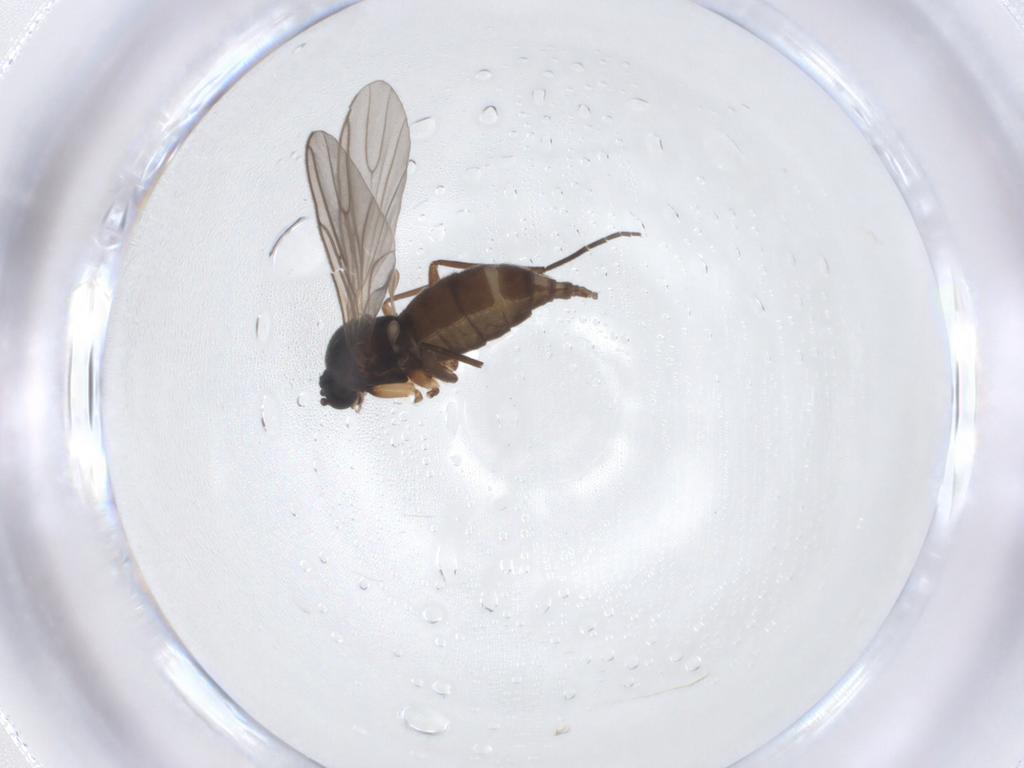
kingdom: Animalia
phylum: Arthropoda
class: Insecta
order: Diptera
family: Sciaridae
